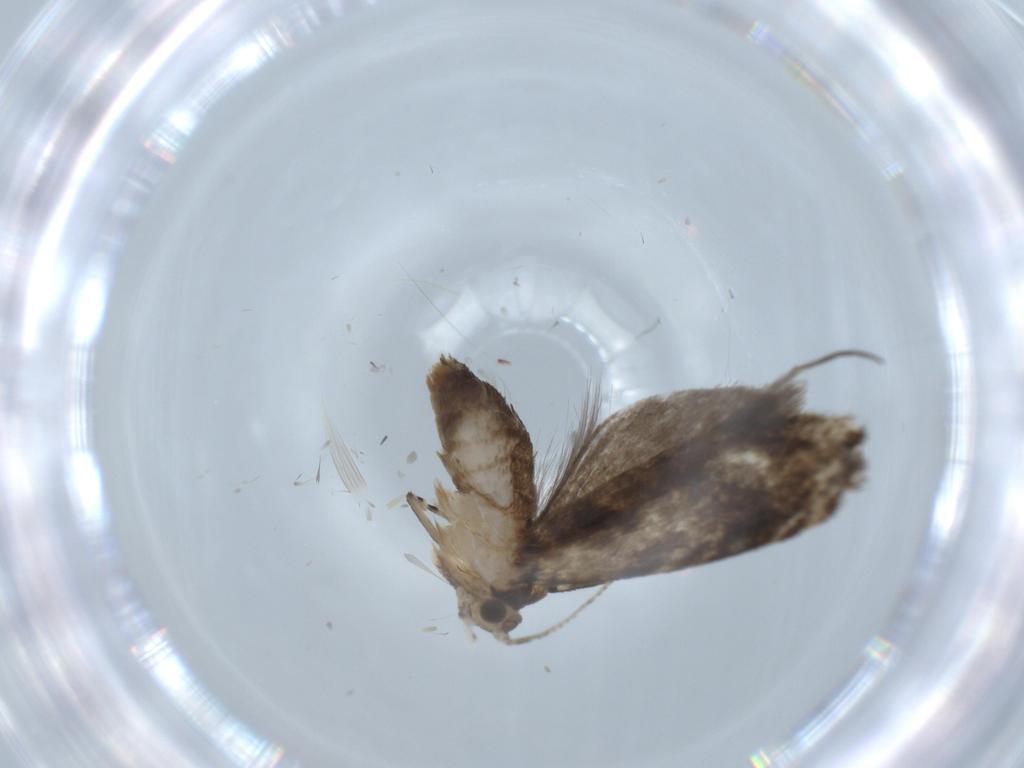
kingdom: Animalia
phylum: Arthropoda
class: Insecta
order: Lepidoptera
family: Tineidae
